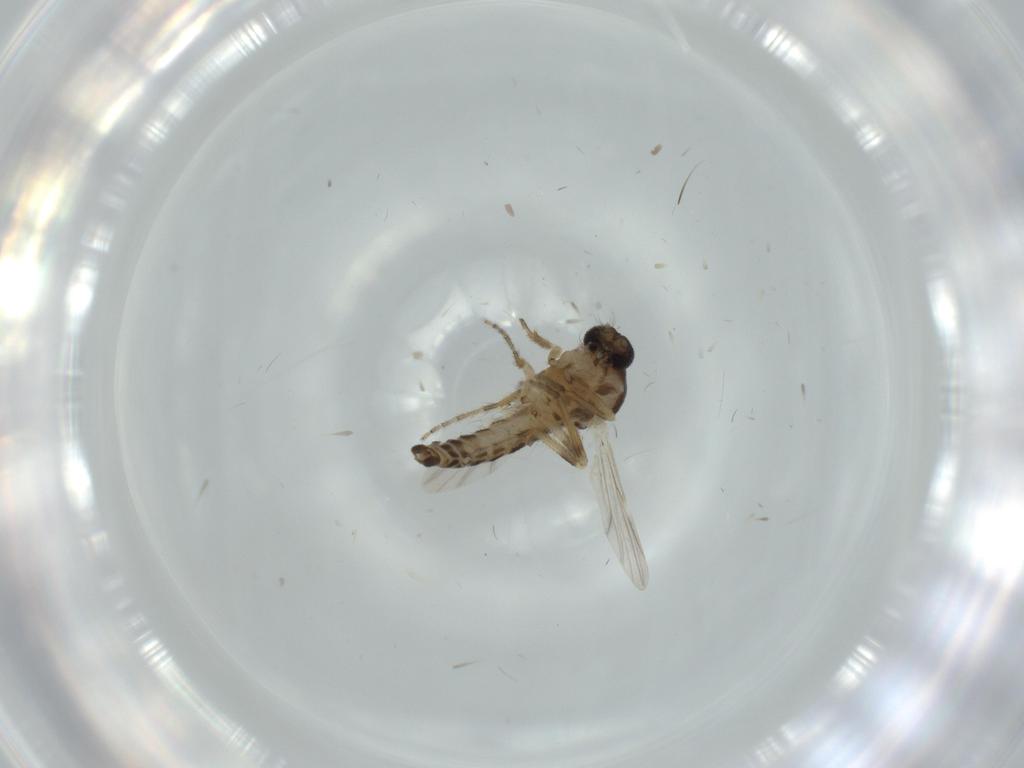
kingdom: Animalia
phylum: Arthropoda
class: Insecta
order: Diptera
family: Ceratopogonidae
